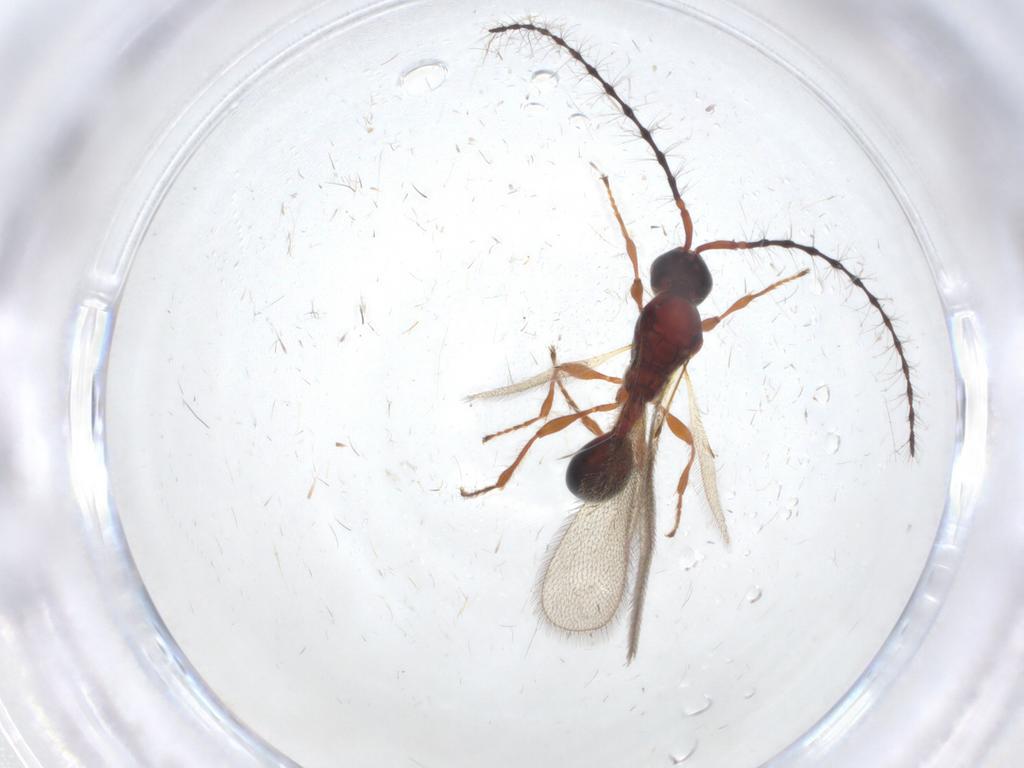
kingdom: Animalia
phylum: Arthropoda
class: Insecta
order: Hymenoptera
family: Diapriidae
